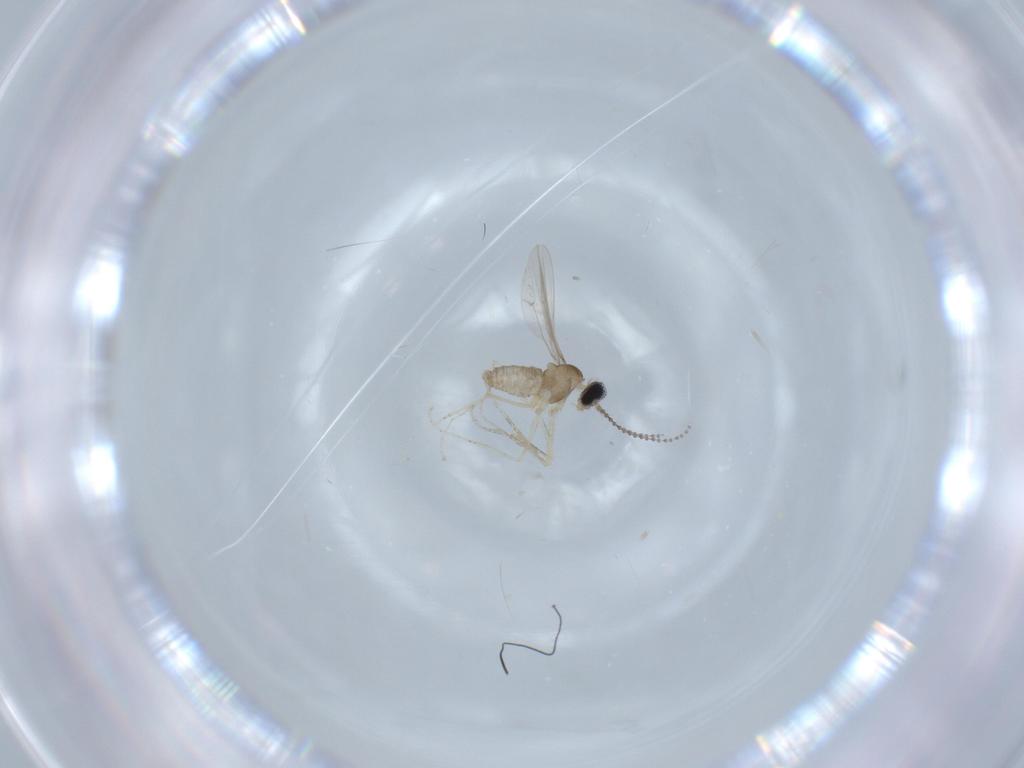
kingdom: Animalia
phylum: Arthropoda
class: Insecta
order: Diptera
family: Cecidomyiidae
